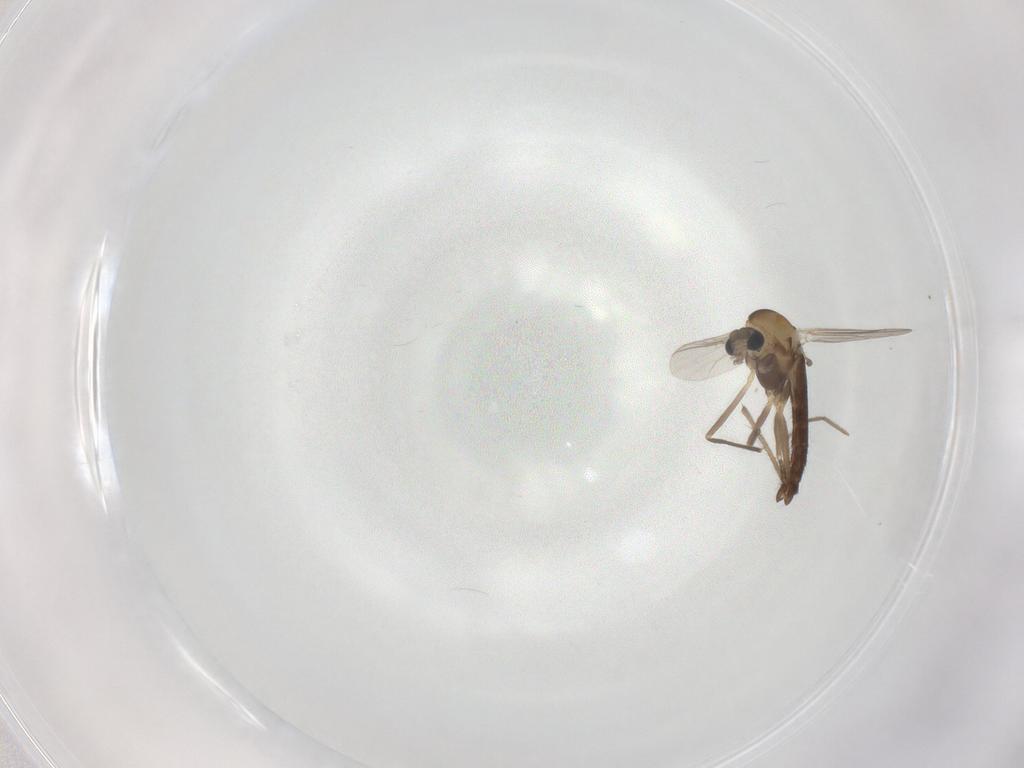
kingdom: Animalia
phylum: Arthropoda
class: Insecta
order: Diptera
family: Chironomidae
